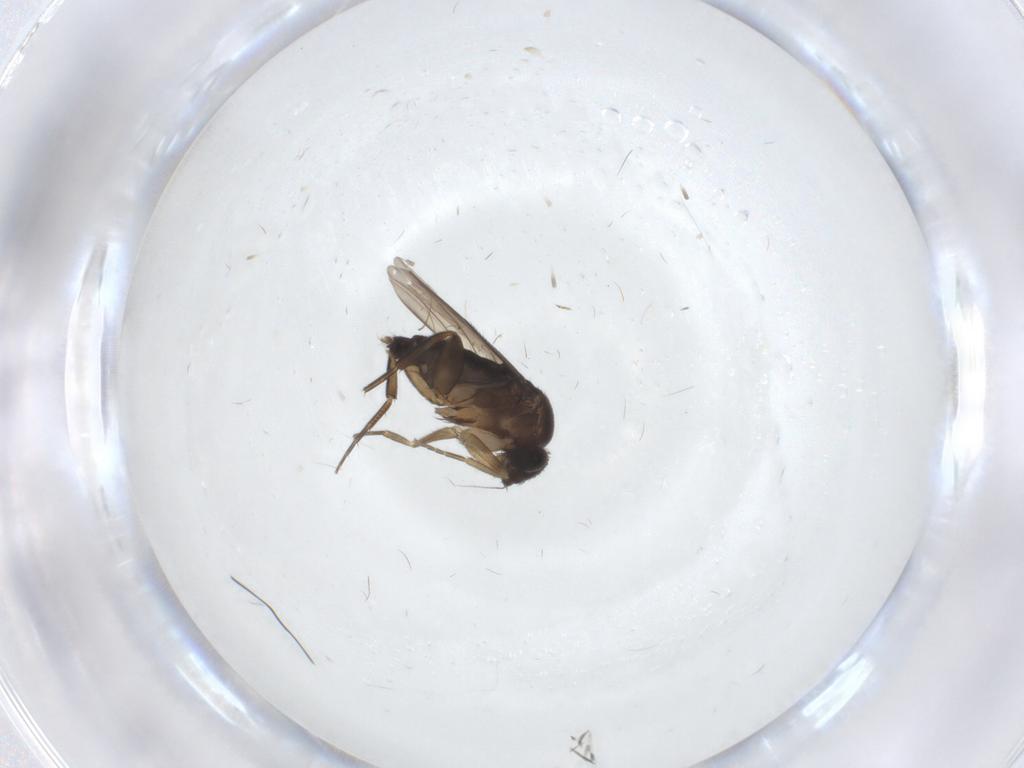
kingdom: Animalia
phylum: Arthropoda
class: Insecta
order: Diptera
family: Phoridae
